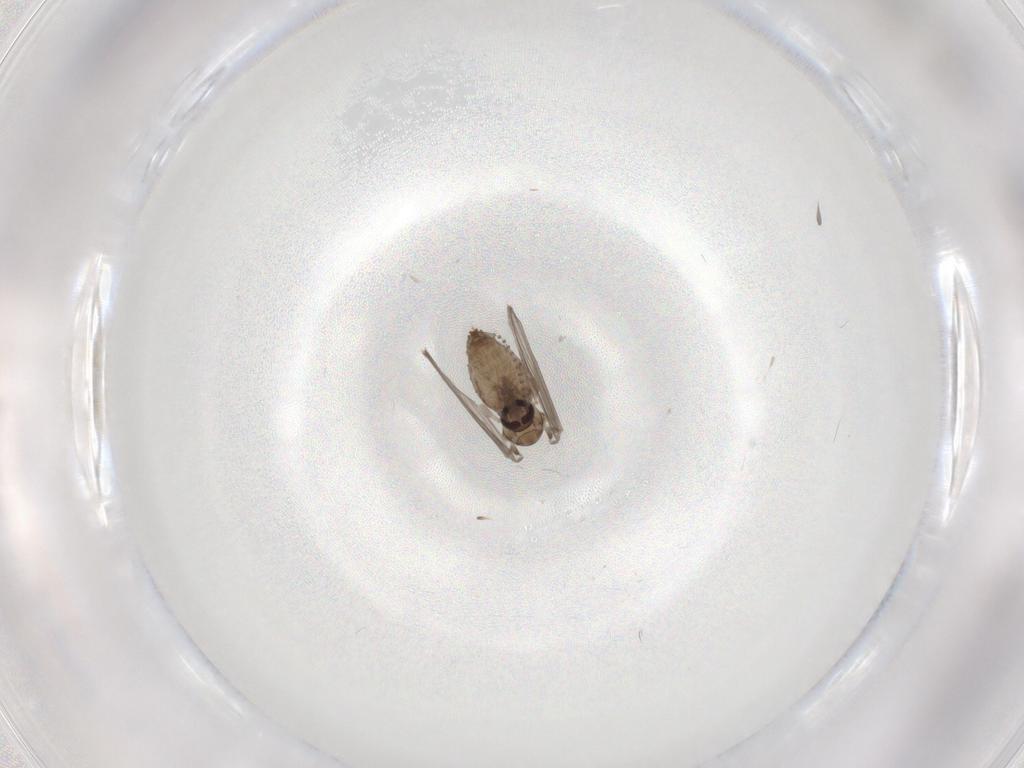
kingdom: Animalia
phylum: Arthropoda
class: Insecta
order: Diptera
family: Psychodidae
